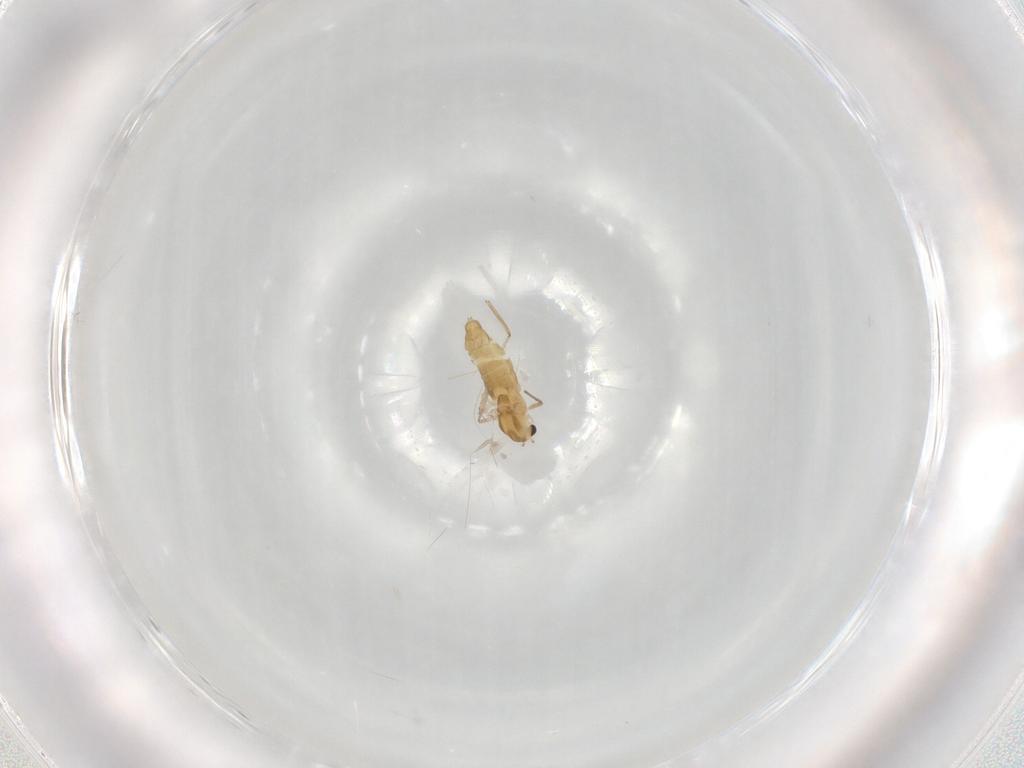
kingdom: Animalia
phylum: Arthropoda
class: Insecta
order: Diptera
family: Chironomidae
